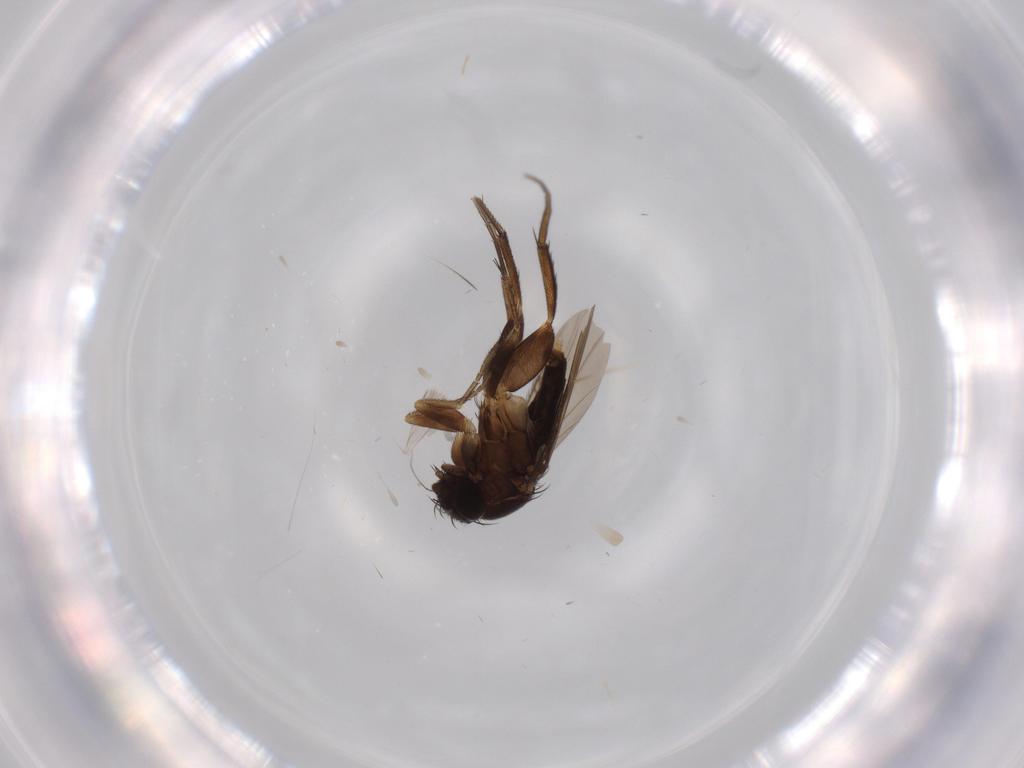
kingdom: Animalia
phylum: Arthropoda
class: Insecta
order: Diptera
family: Phoridae
